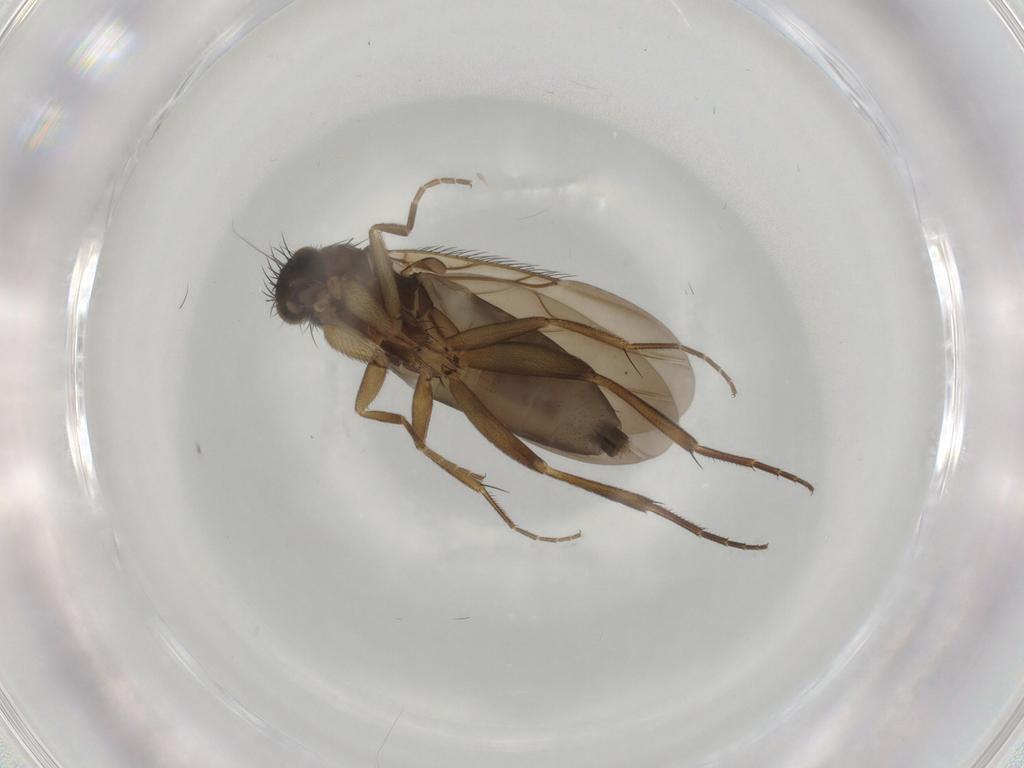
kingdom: Animalia
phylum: Arthropoda
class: Insecta
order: Diptera
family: Phoridae
